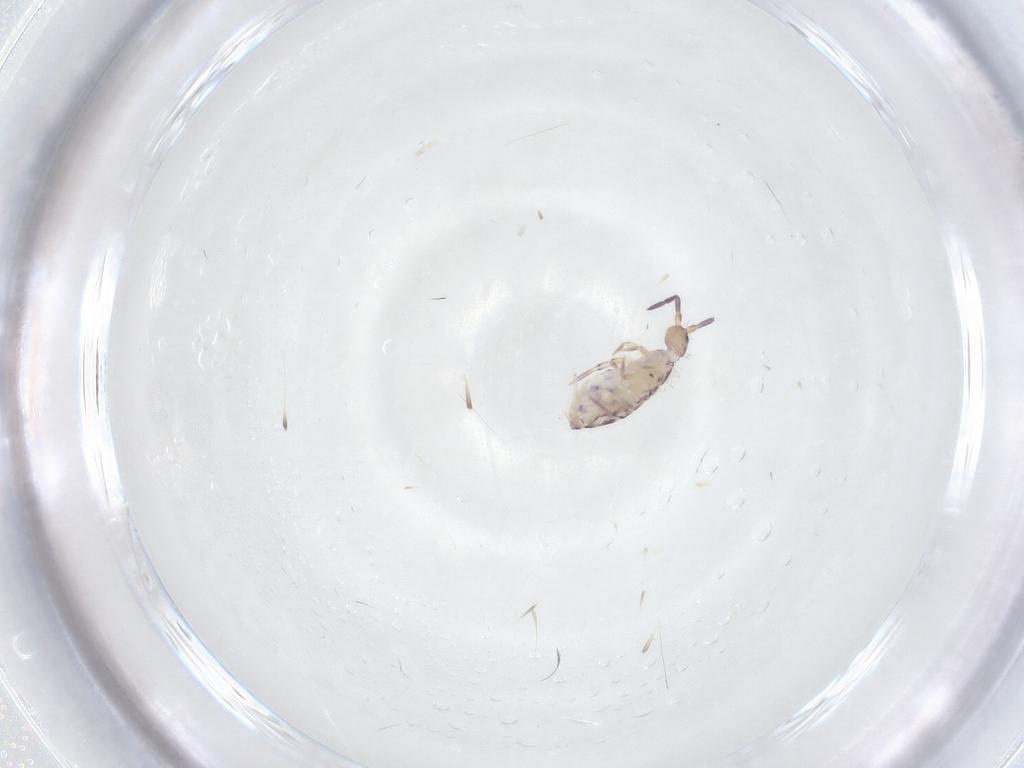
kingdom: Animalia
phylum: Arthropoda
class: Collembola
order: Entomobryomorpha
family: Entomobryidae
